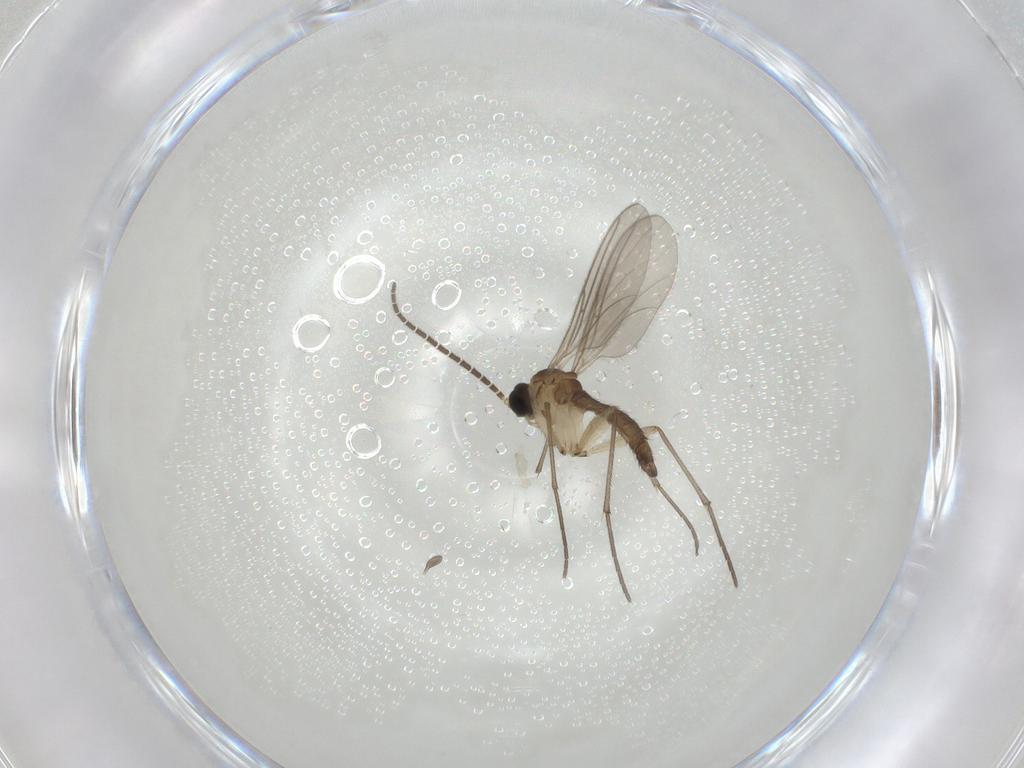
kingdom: Animalia
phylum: Arthropoda
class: Insecta
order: Diptera
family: Sciaridae
